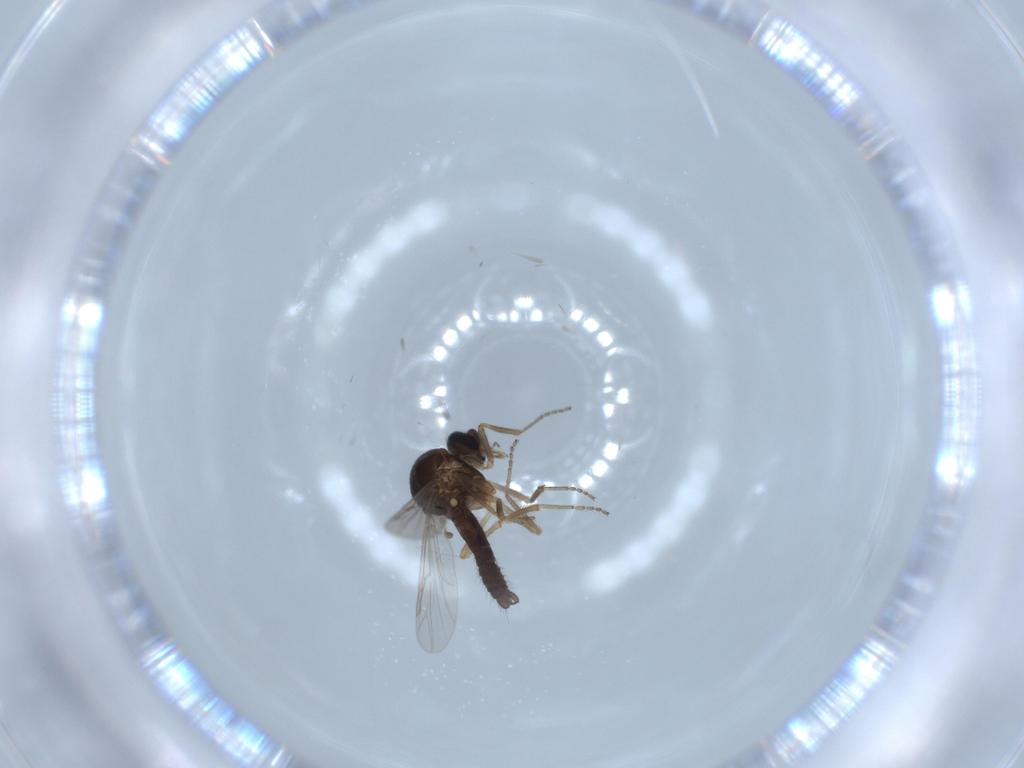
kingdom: Animalia
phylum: Arthropoda
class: Insecta
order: Diptera
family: Ceratopogonidae
